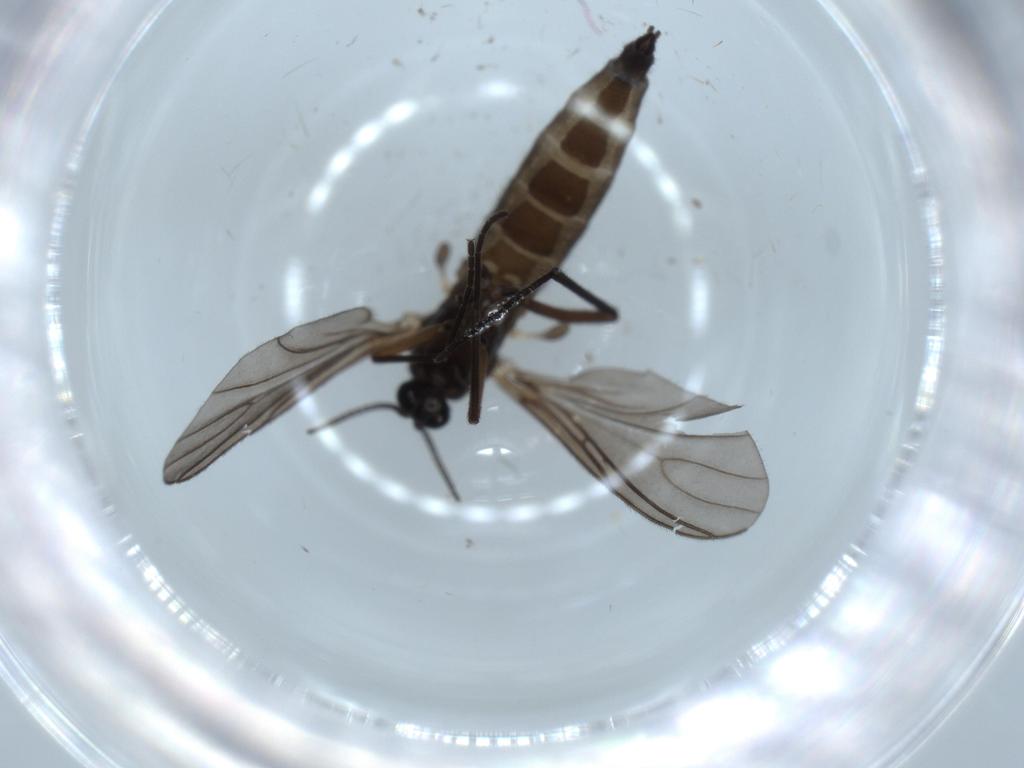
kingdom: Animalia
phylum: Arthropoda
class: Insecta
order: Diptera
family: Sciaridae
